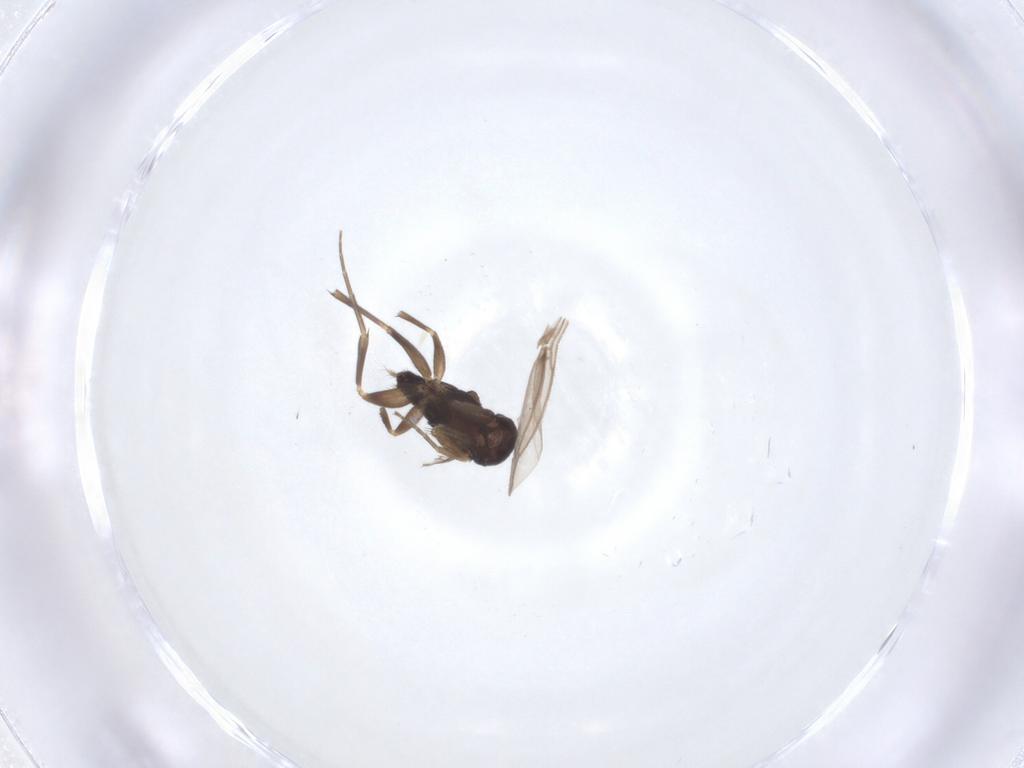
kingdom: Animalia
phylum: Arthropoda
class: Insecta
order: Diptera
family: Phoridae
